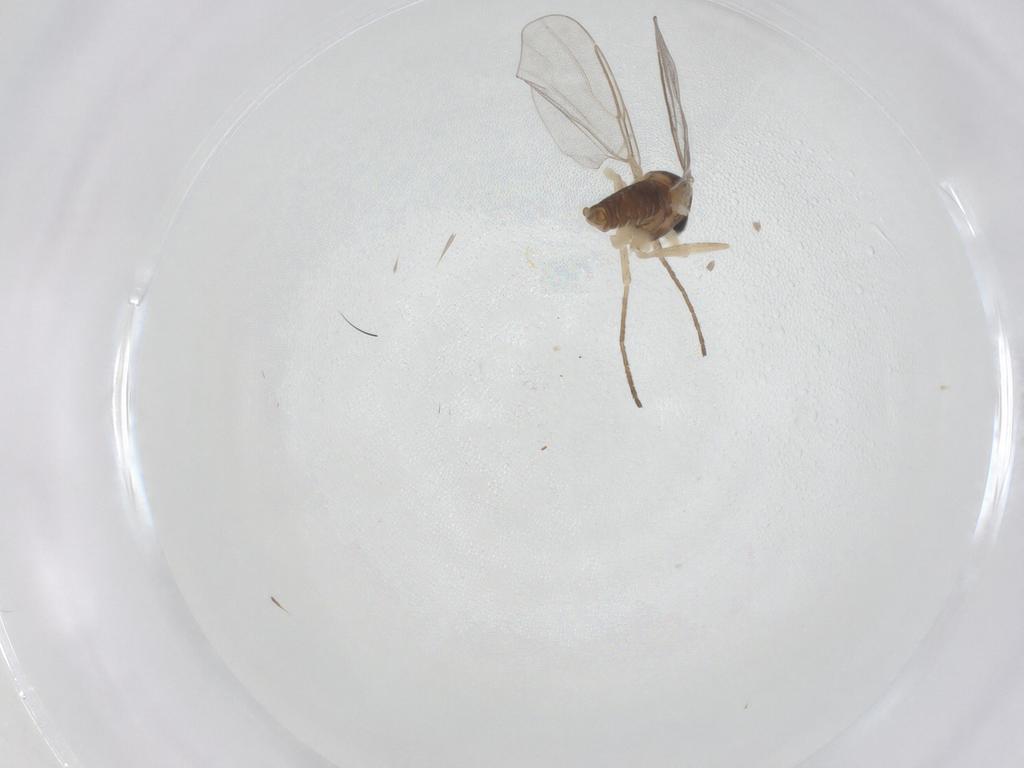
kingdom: Animalia
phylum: Arthropoda
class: Insecta
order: Diptera
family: Micropezidae
